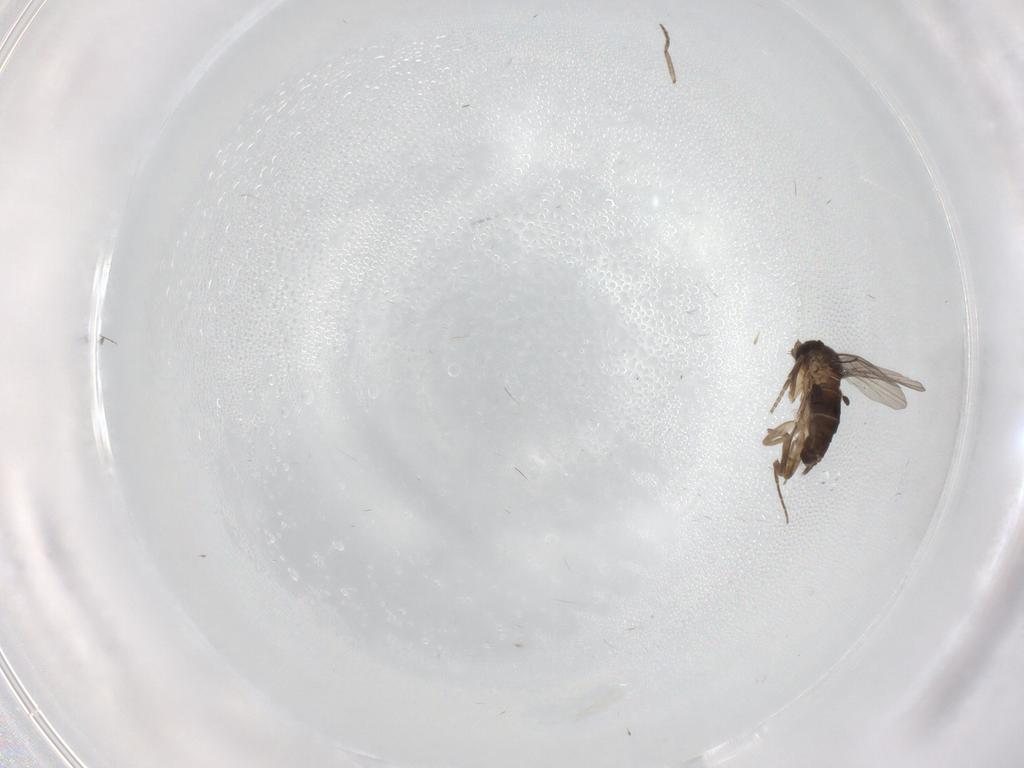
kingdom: Animalia
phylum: Arthropoda
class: Insecta
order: Diptera
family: Phoridae
